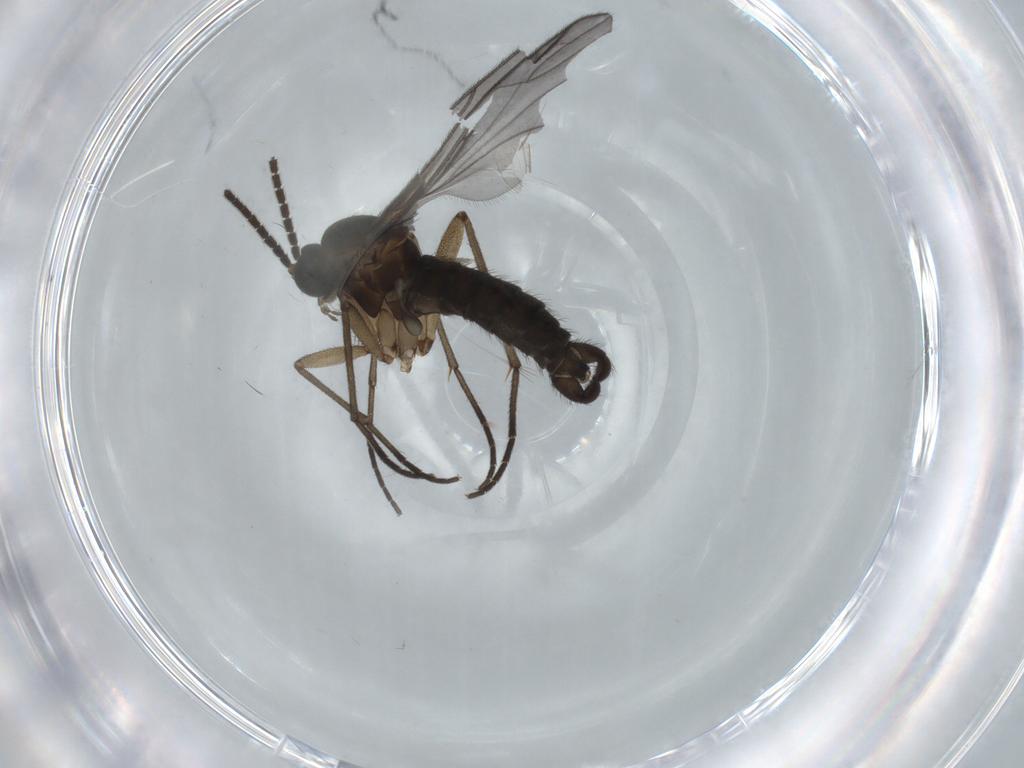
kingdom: Animalia
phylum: Arthropoda
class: Insecta
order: Diptera
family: Sciaridae
